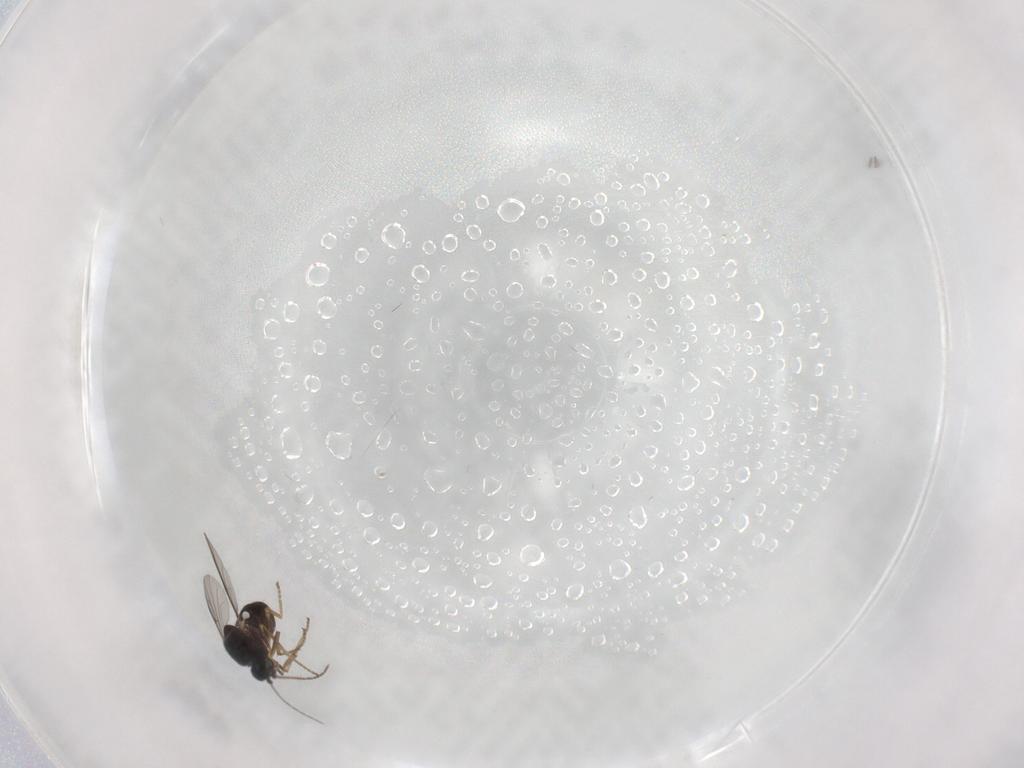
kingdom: Animalia
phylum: Arthropoda
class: Insecta
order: Diptera
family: Ceratopogonidae
